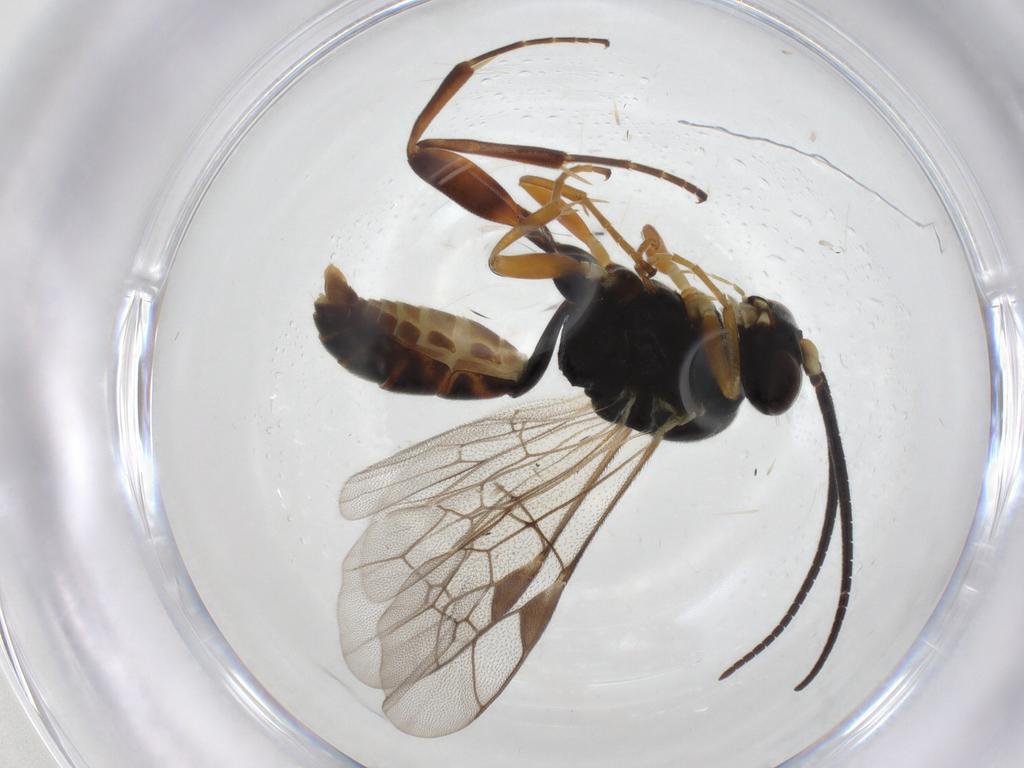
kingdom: Animalia
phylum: Arthropoda
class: Insecta
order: Hymenoptera
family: Ichneumonidae
